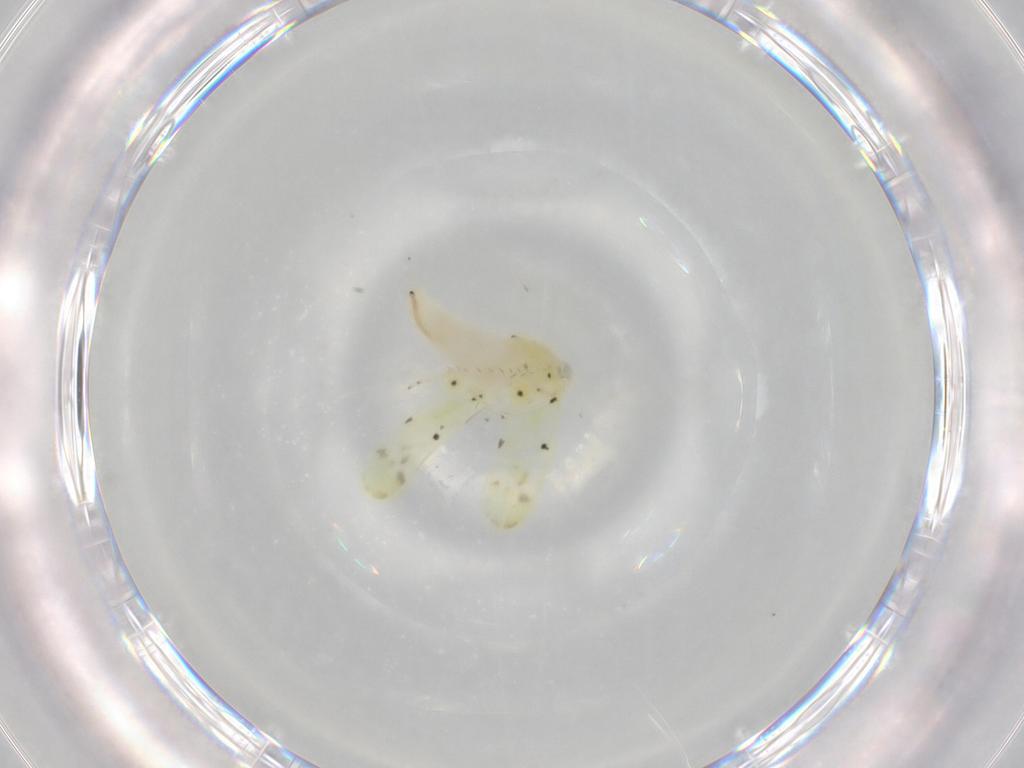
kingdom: Animalia
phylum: Arthropoda
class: Insecta
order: Hemiptera
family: Cicadellidae
